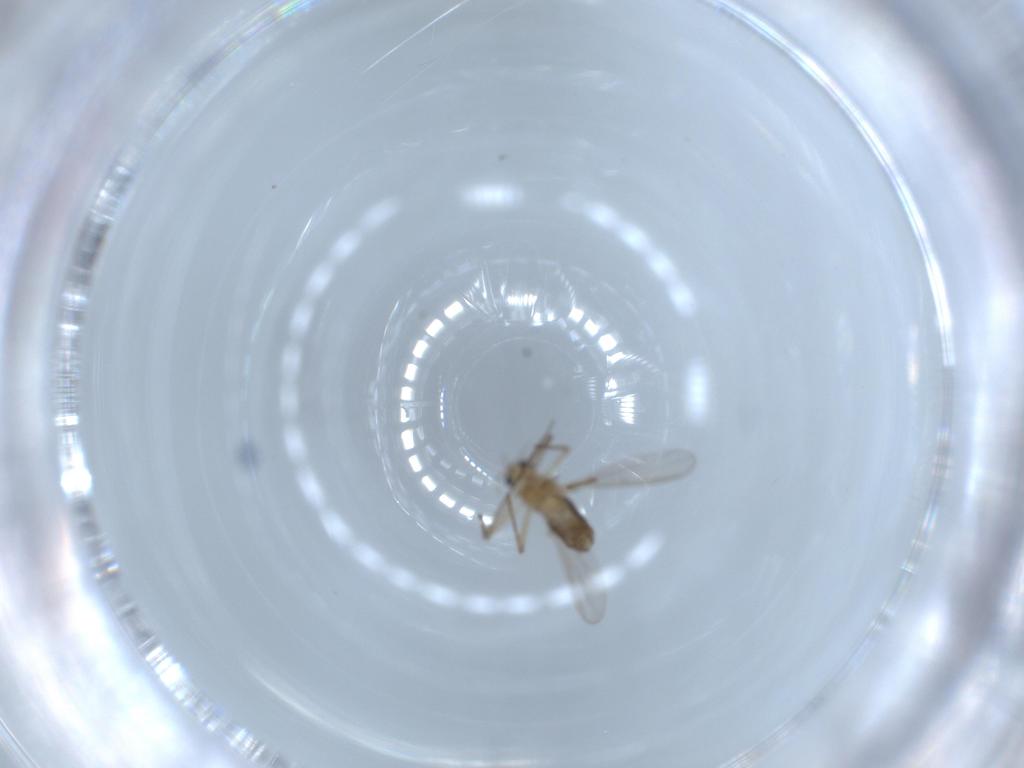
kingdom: Animalia
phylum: Arthropoda
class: Insecta
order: Diptera
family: Chironomidae
